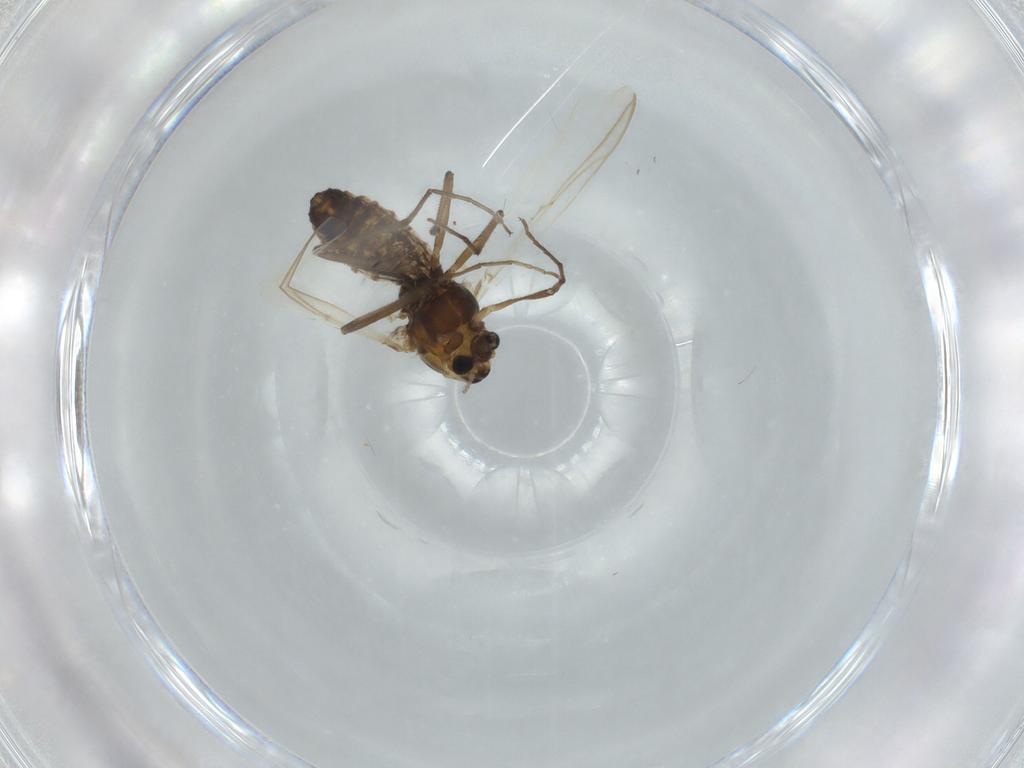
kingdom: Animalia
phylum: Arthropoda
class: Insecta
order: Diptera
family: Chironomidae
